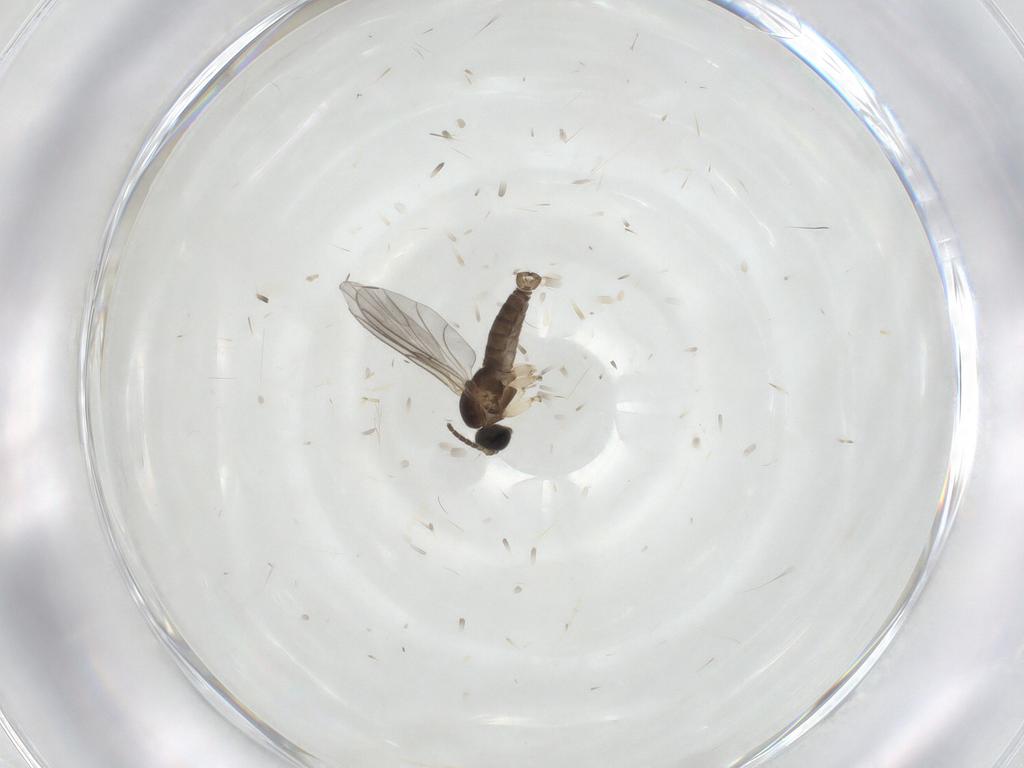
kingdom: Animalia
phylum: Arthropoda
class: Insecta
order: Diptera
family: Sciaridae
